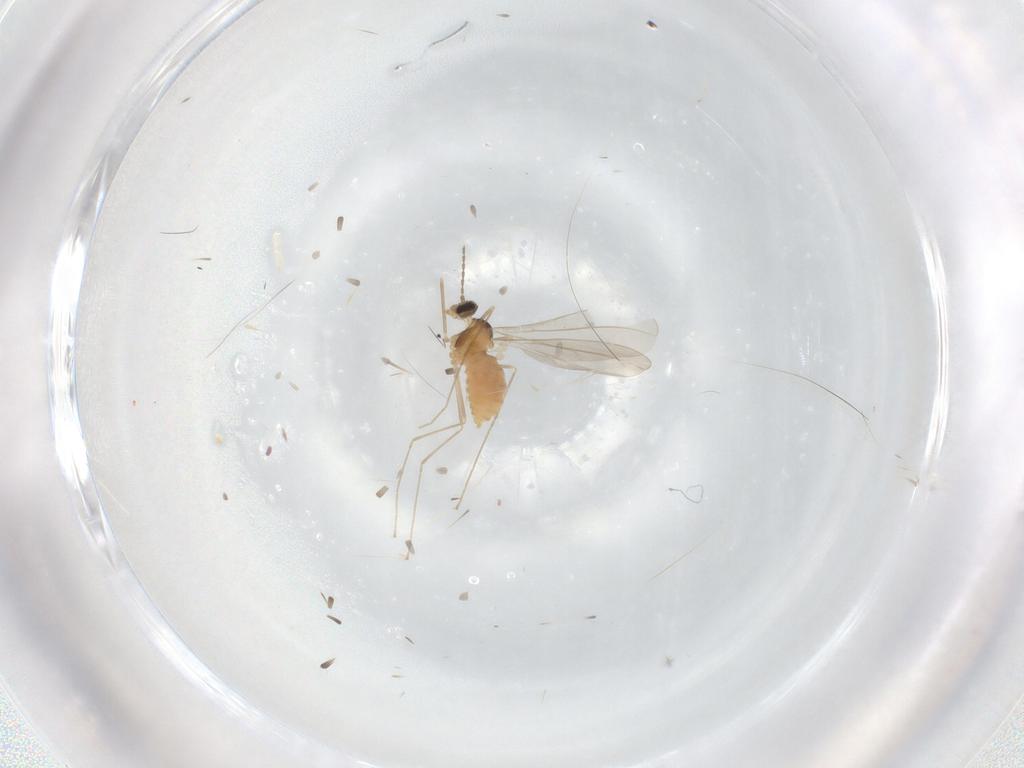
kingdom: Animalia
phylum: Arthropoda
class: Insecta
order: Diptera
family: Cecidomyiidae
